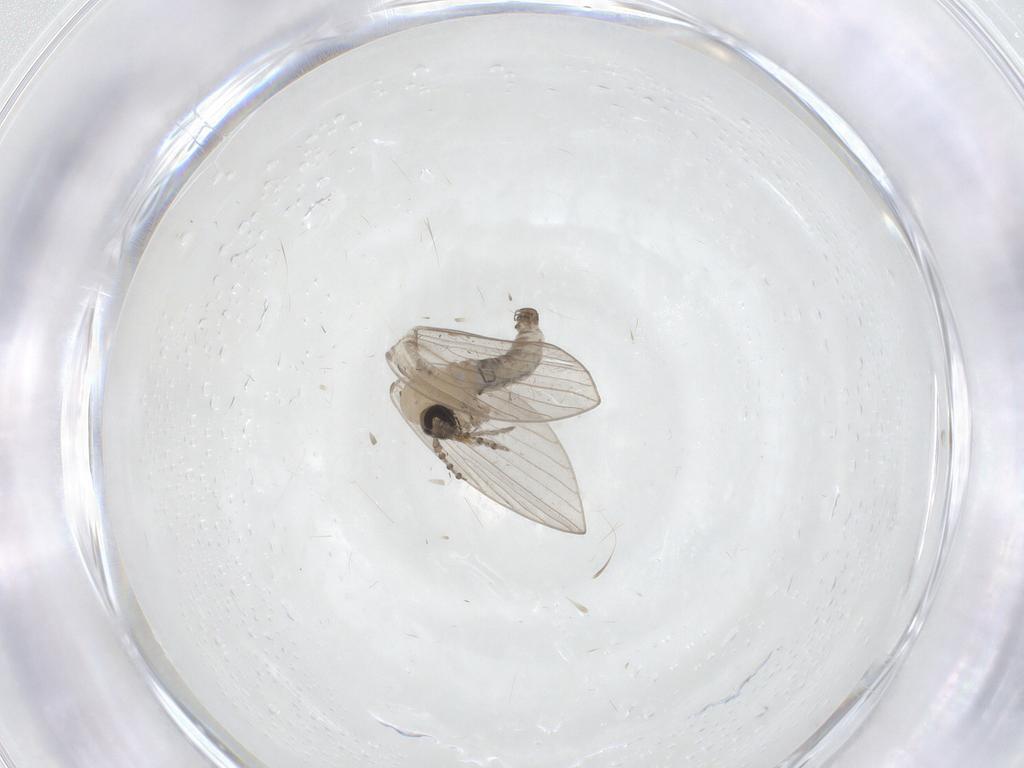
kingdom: Animalia
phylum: Arthropoda
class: Insecta
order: Diptera
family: Psychodidae
